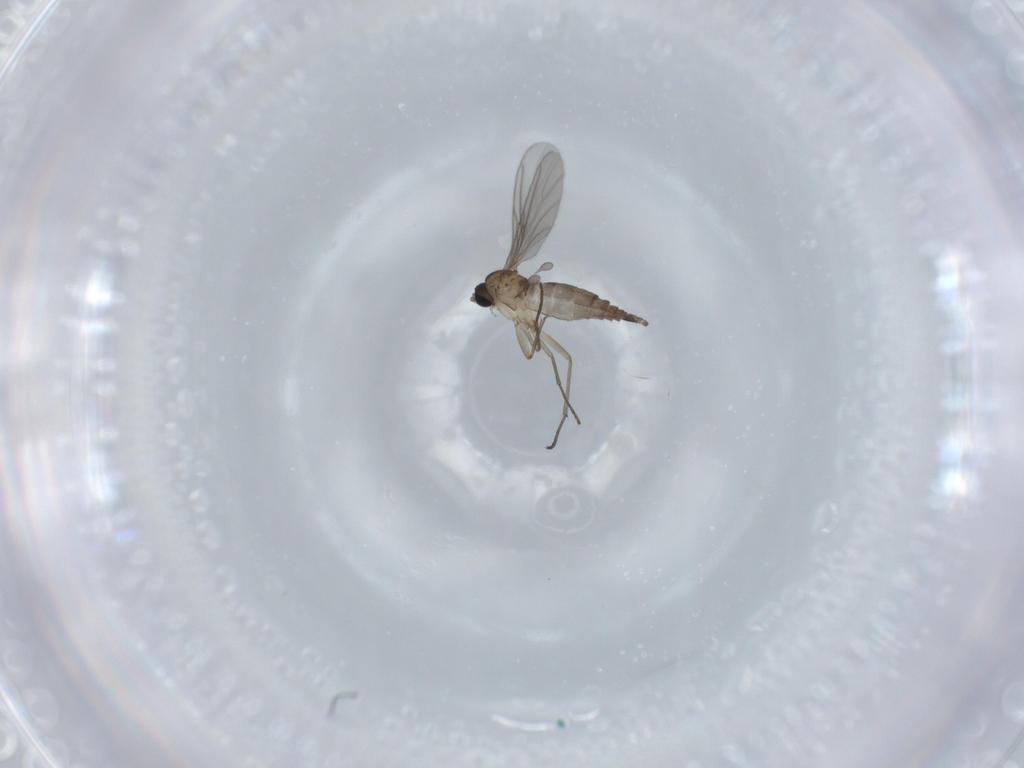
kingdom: Animalia
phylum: Arthropoda
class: Insecta
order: Diptera
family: Sciaridae
